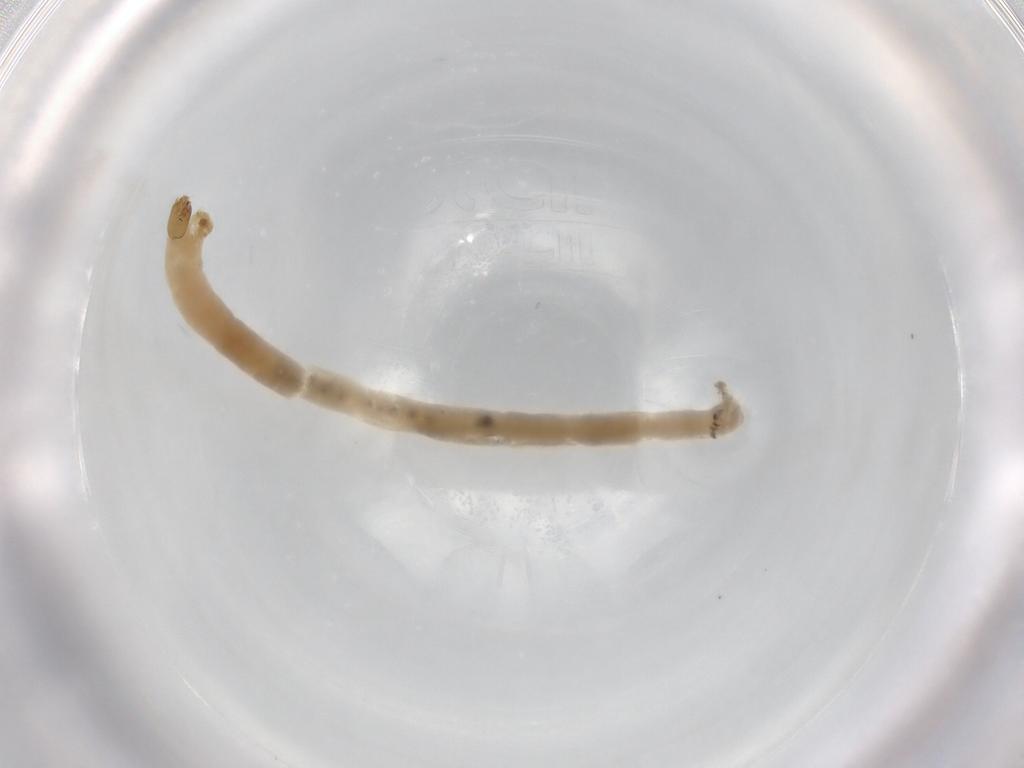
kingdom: Animalia
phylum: Arthropoda
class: Insecta
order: Diptera
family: Chironomidae
